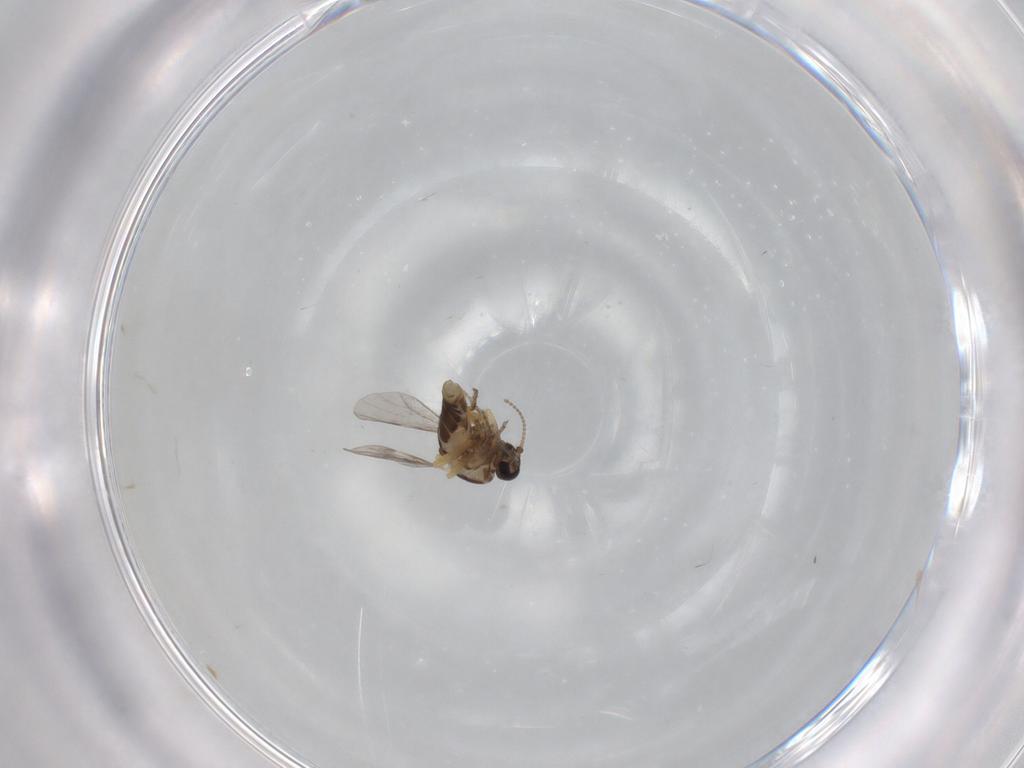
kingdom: Animalia
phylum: Arthropoda
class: Insecta
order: Diptera
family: Ceratopogonidae
